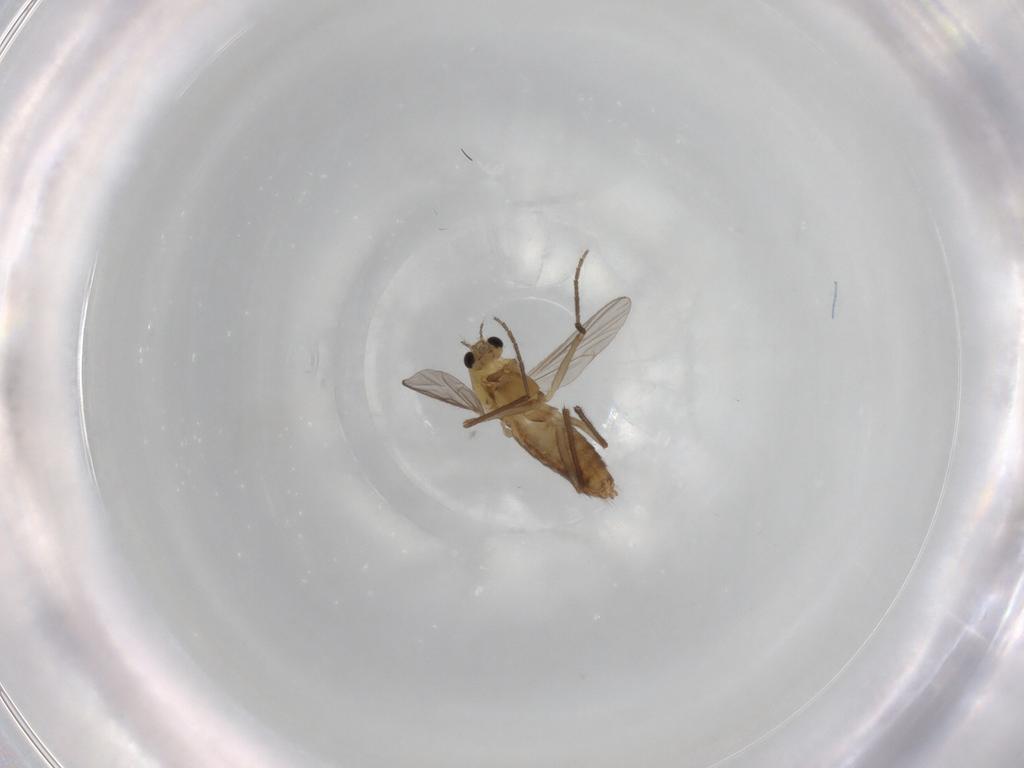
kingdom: Animalia
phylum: Arthropoda
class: Insecta
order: Diptera
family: Chironomidae
